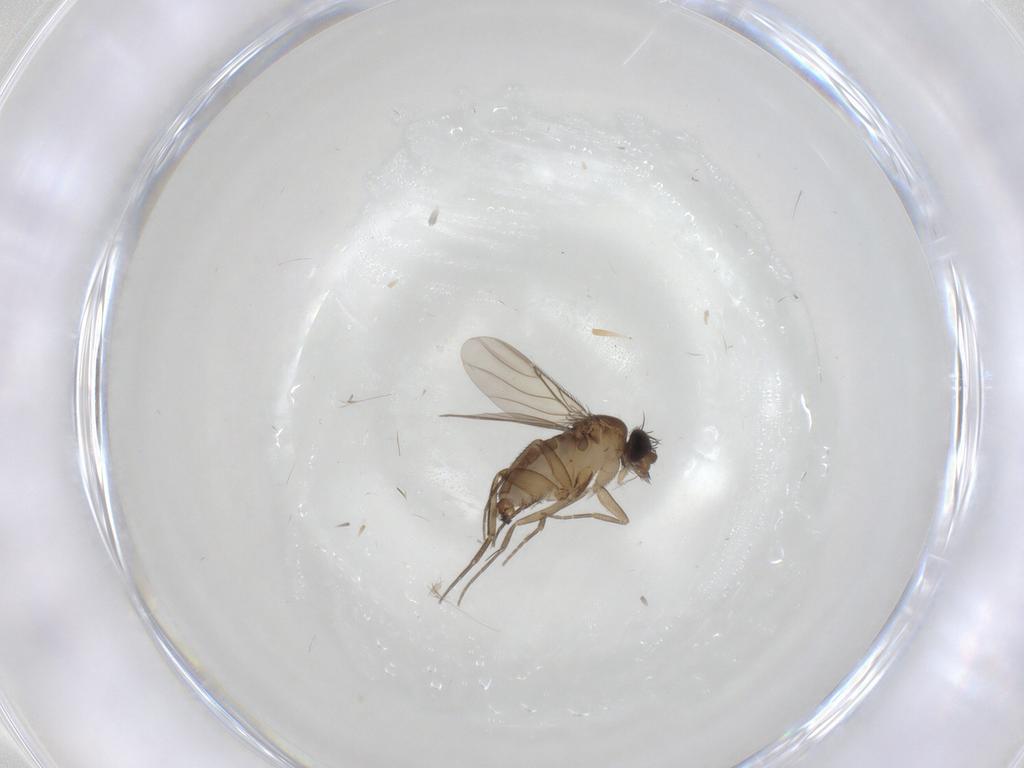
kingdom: Animalia
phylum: Arthropoda
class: Insecta
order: Diptera
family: Phoridae
